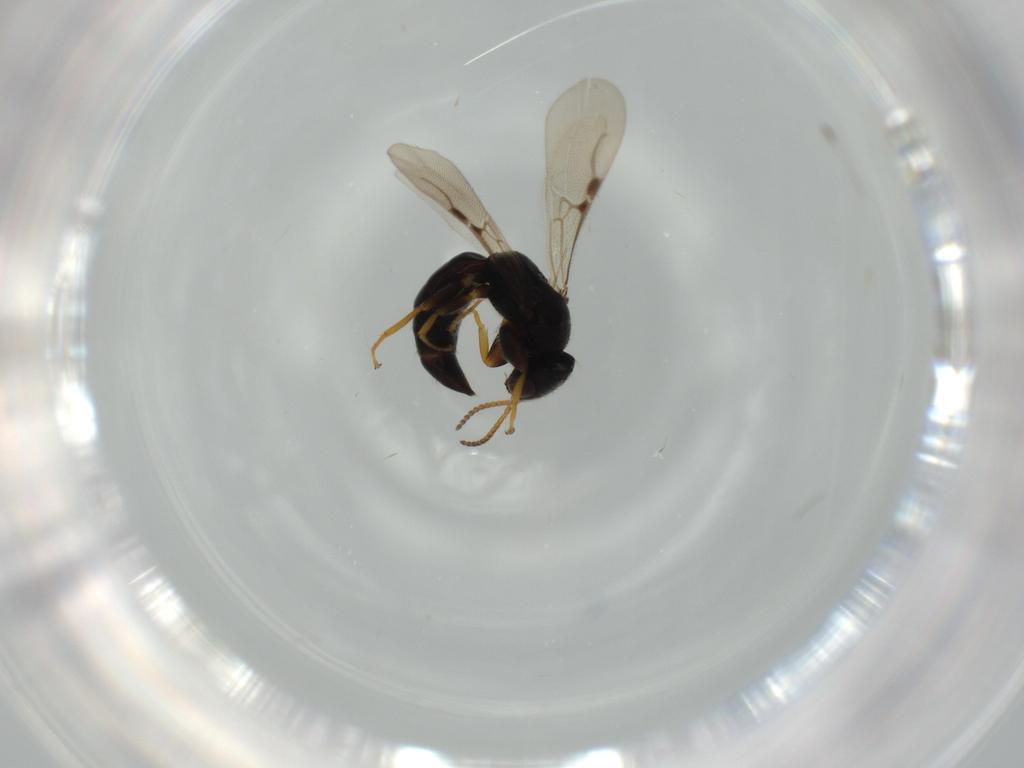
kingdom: Animalia
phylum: Arthropoda
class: Insecta
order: Hymenoptera
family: Bethylidae
